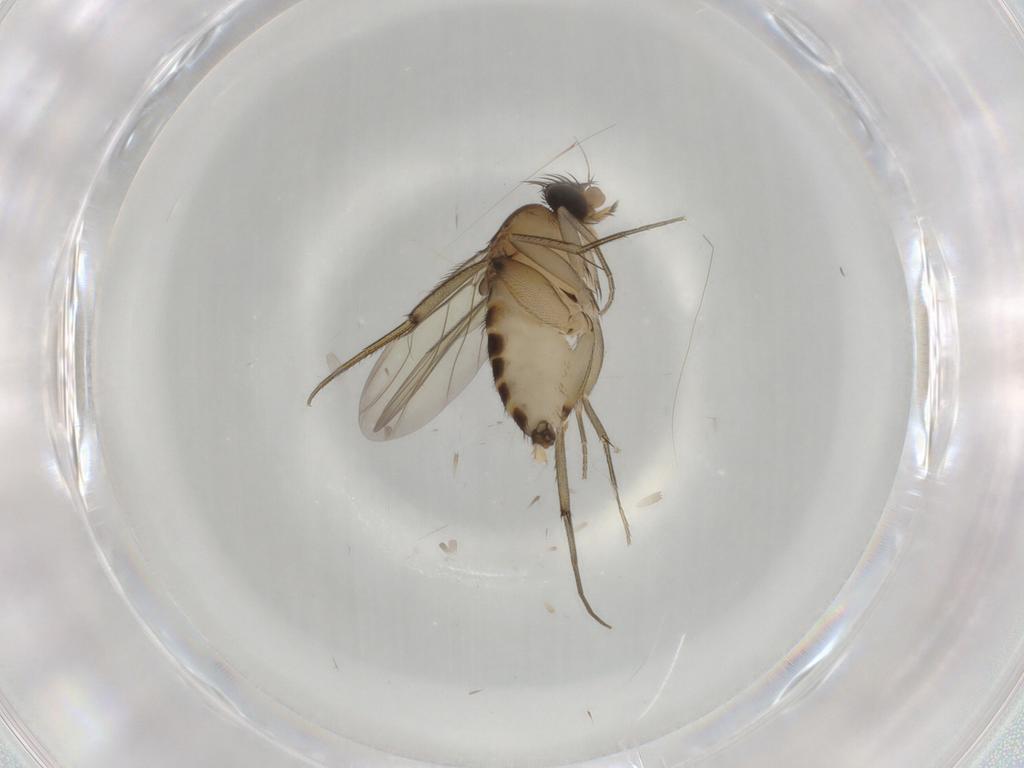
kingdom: Animalia
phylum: Arthropoda
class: Insecta
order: Diptera
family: Phoridae
